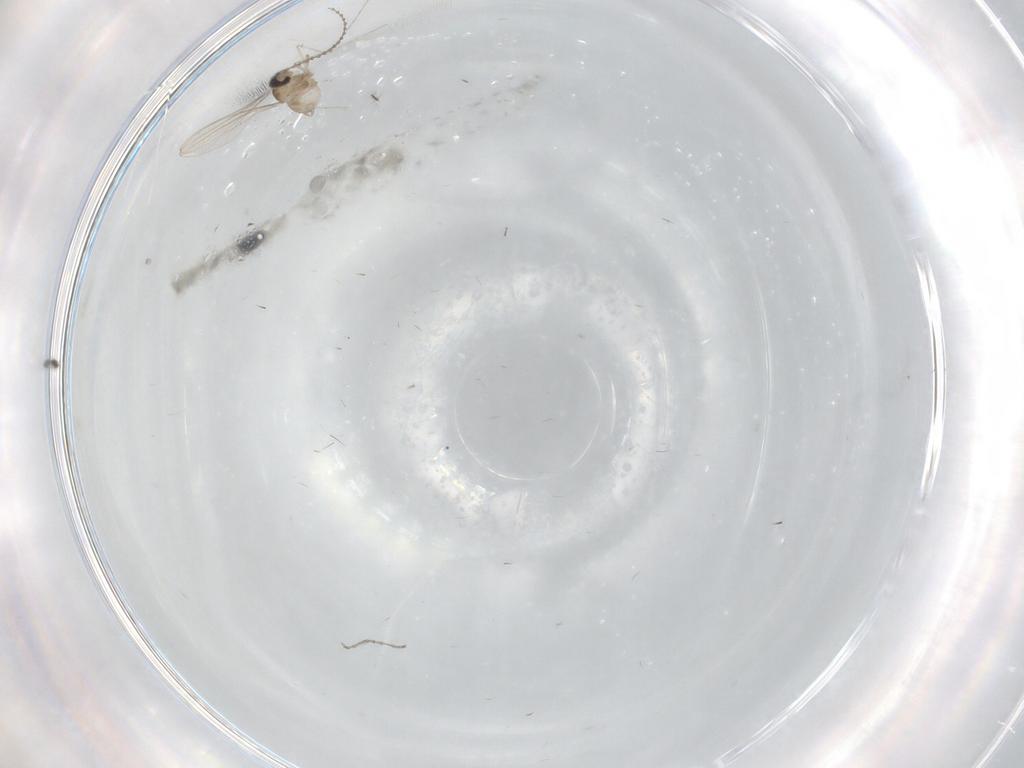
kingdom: Animalia
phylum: Arthropoda
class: Insecta
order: Diptera
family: Cecidomyiidae
